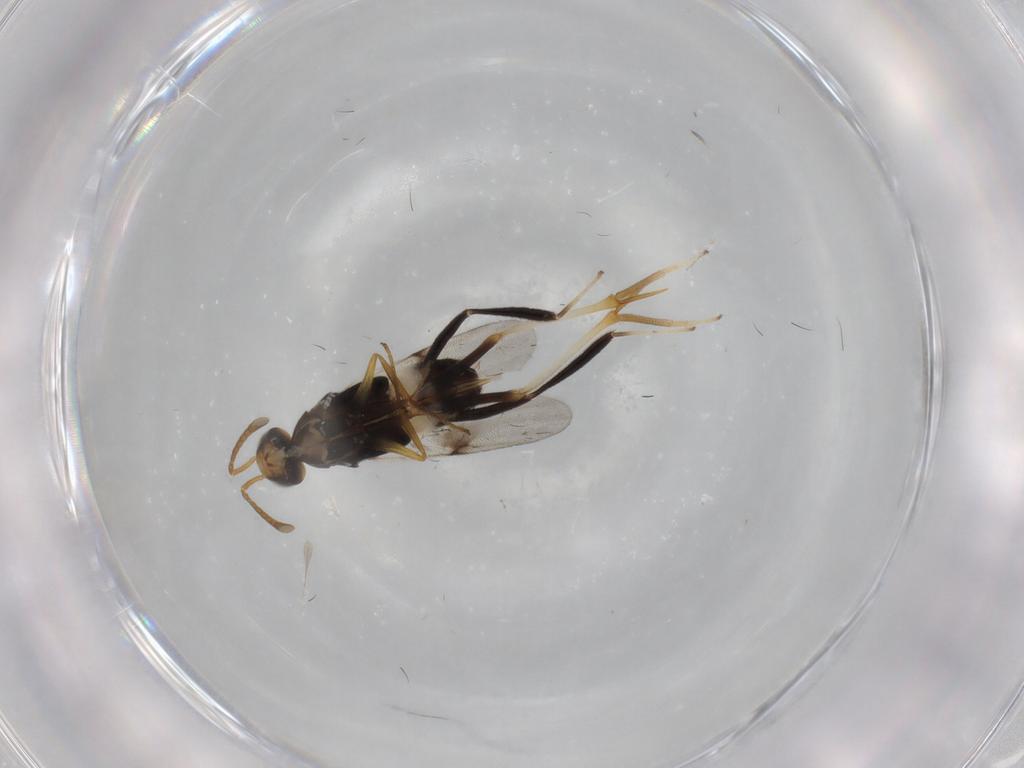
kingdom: Animalia
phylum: Arthropoda
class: Insecta
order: Hymenoptera
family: Encyrtidae
